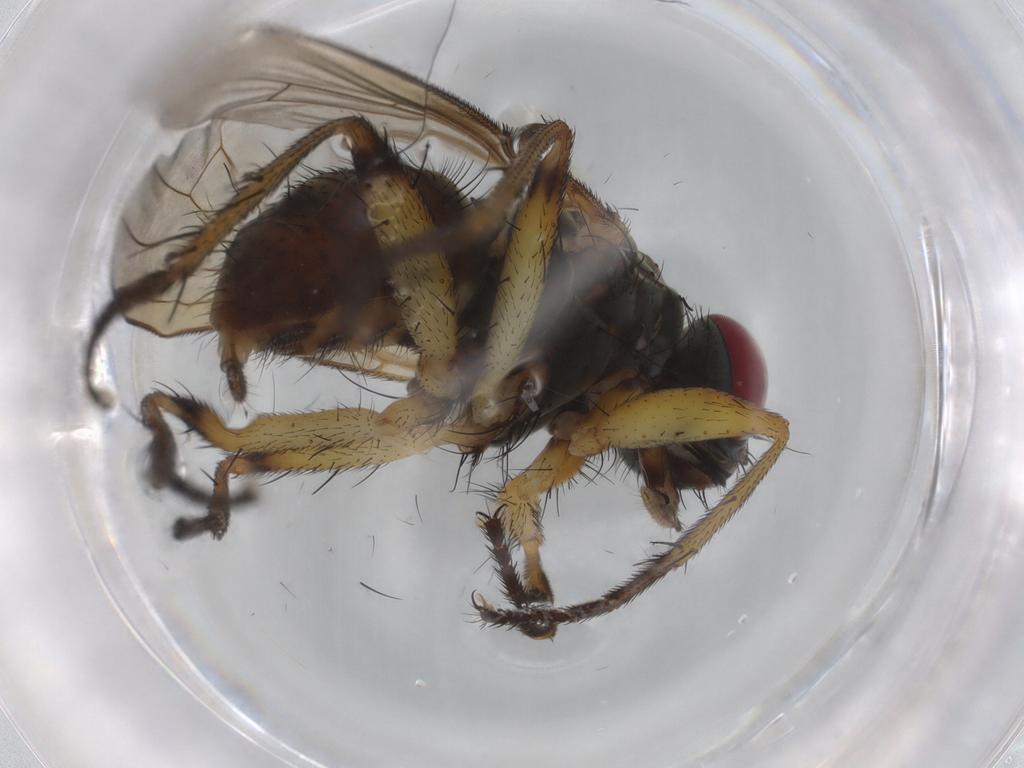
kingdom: Animalia
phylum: Arthropoda
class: Insecta
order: Diptera
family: Muscidae
